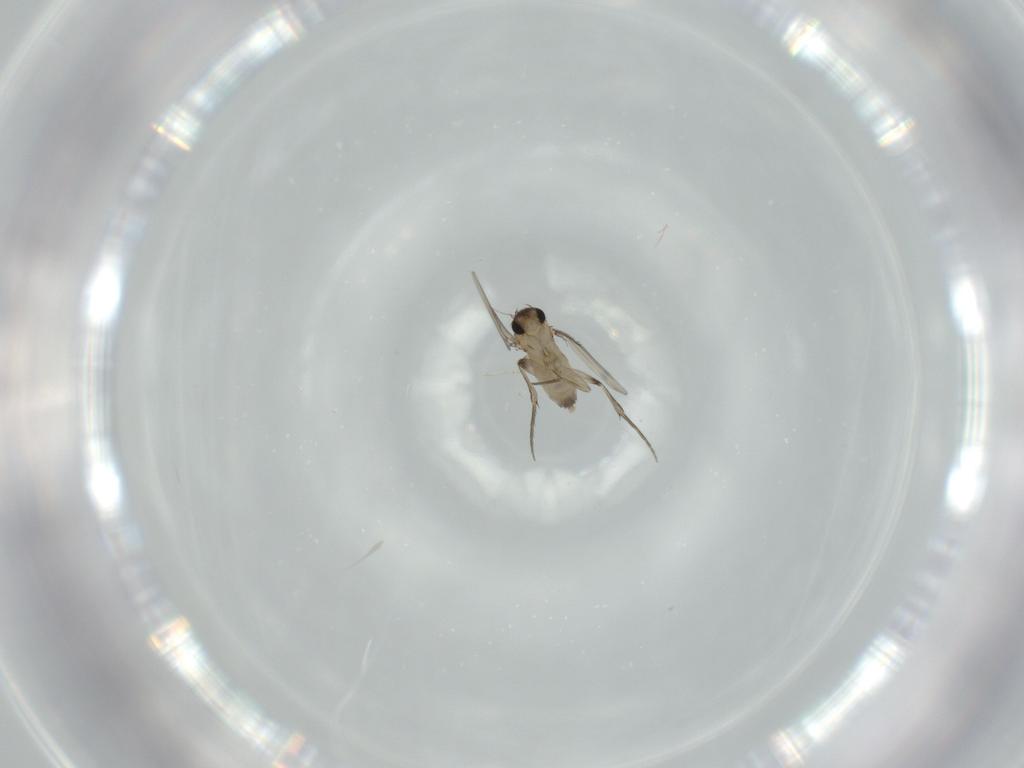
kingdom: Animalia
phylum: Arthropoda
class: Insecta
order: Diptera
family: Phoridae
